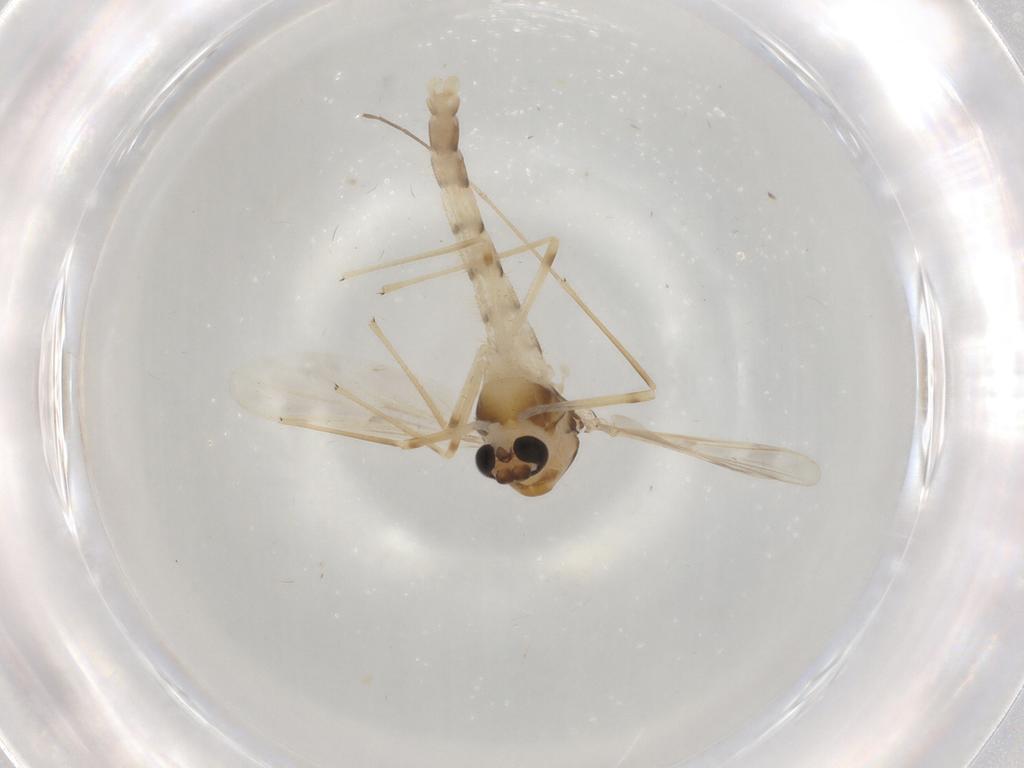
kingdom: Animalia
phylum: Arthropoda
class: Insecta
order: Diptera
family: Chironomidae
